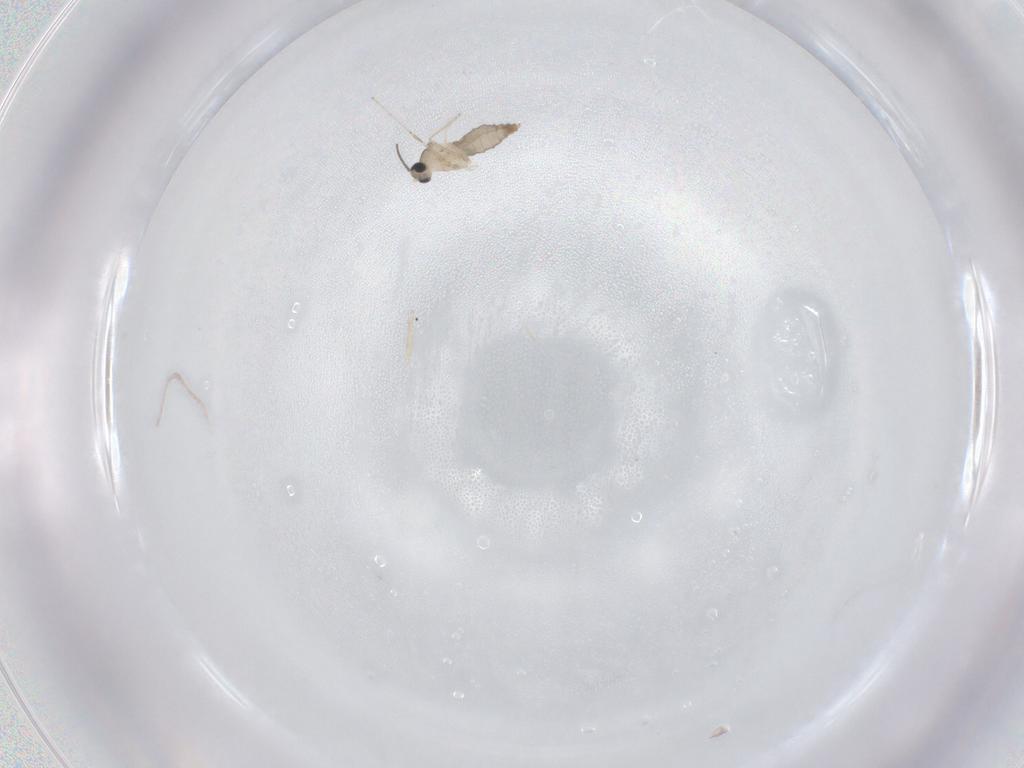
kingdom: Animalia
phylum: Arthropoda
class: Insecta
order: Diptera
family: Cecidomyiidae
